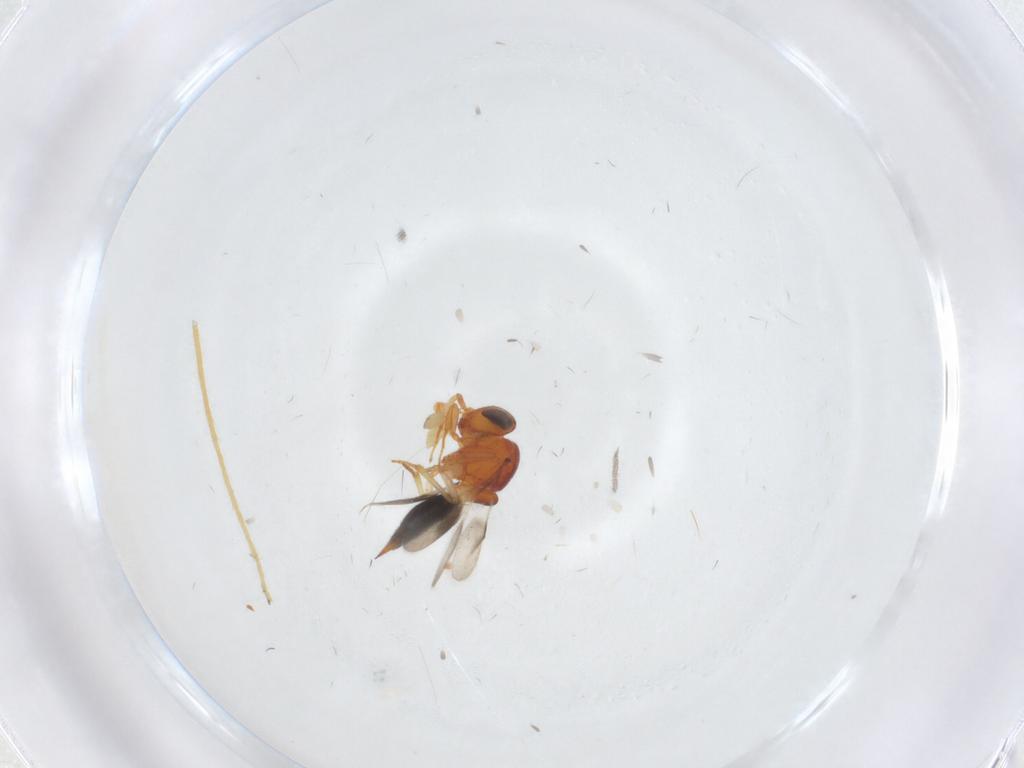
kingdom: Animalia
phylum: Arthropoda
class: Insecta
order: Hymenoptera
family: Scelionidae
